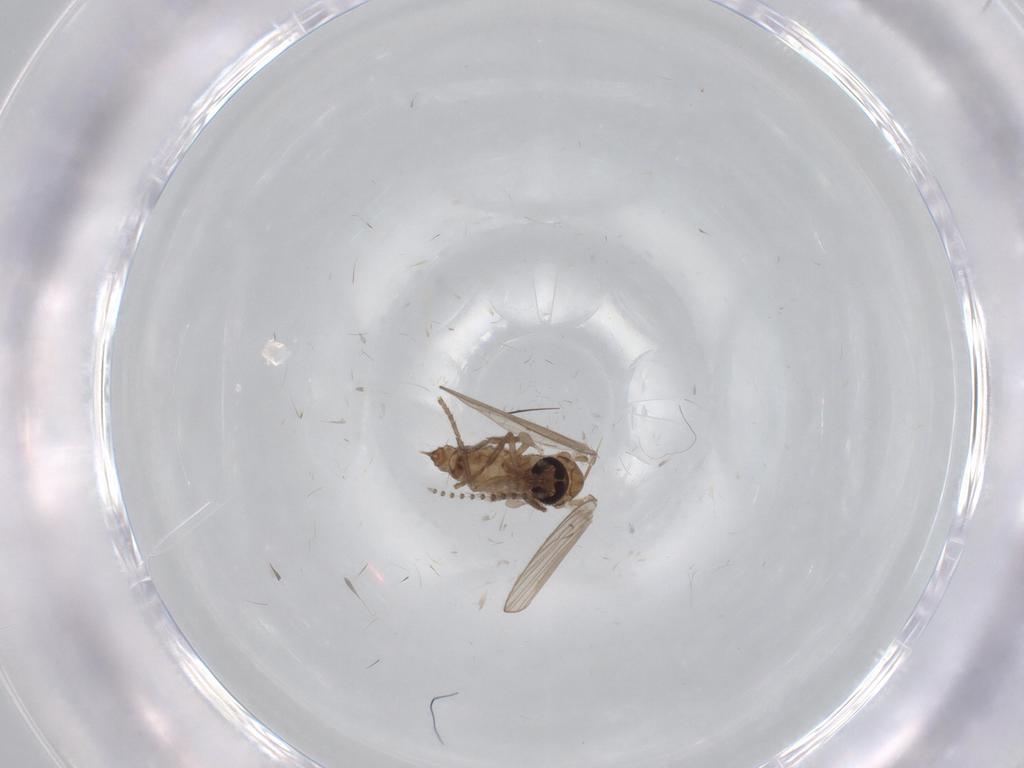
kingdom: Animalia
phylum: Arthropoda
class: Insecta
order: Diptera
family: Psychodidae
